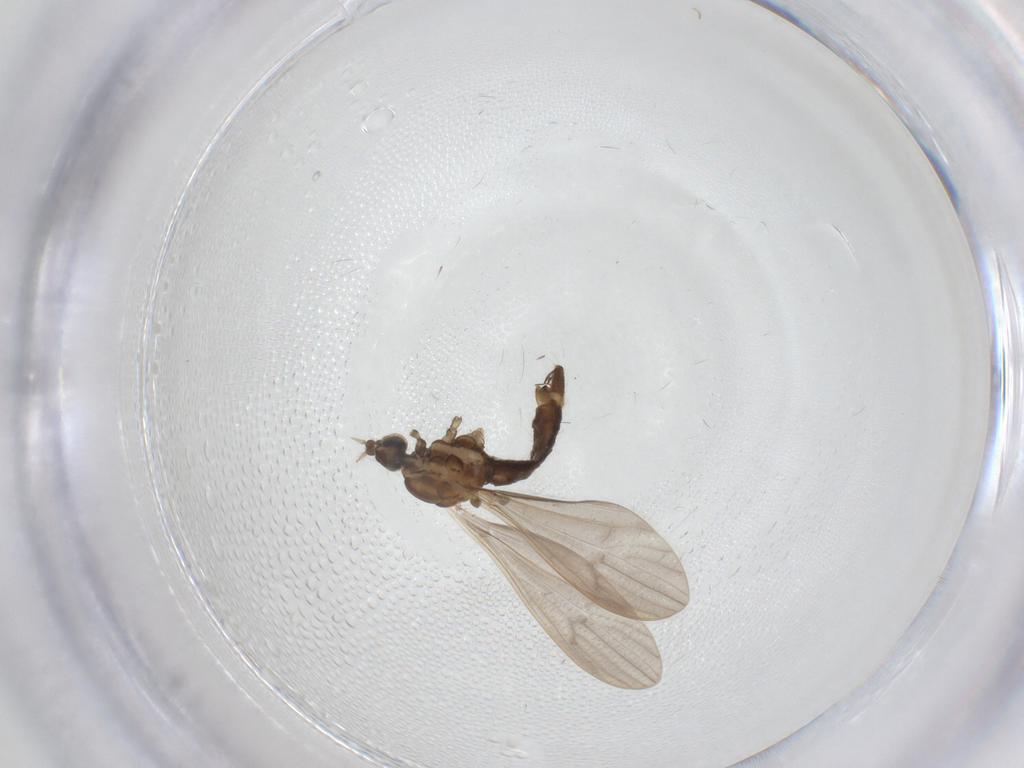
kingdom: Animalia
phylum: Arthropoda
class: Insecta
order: Diptera
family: Limoniidae
